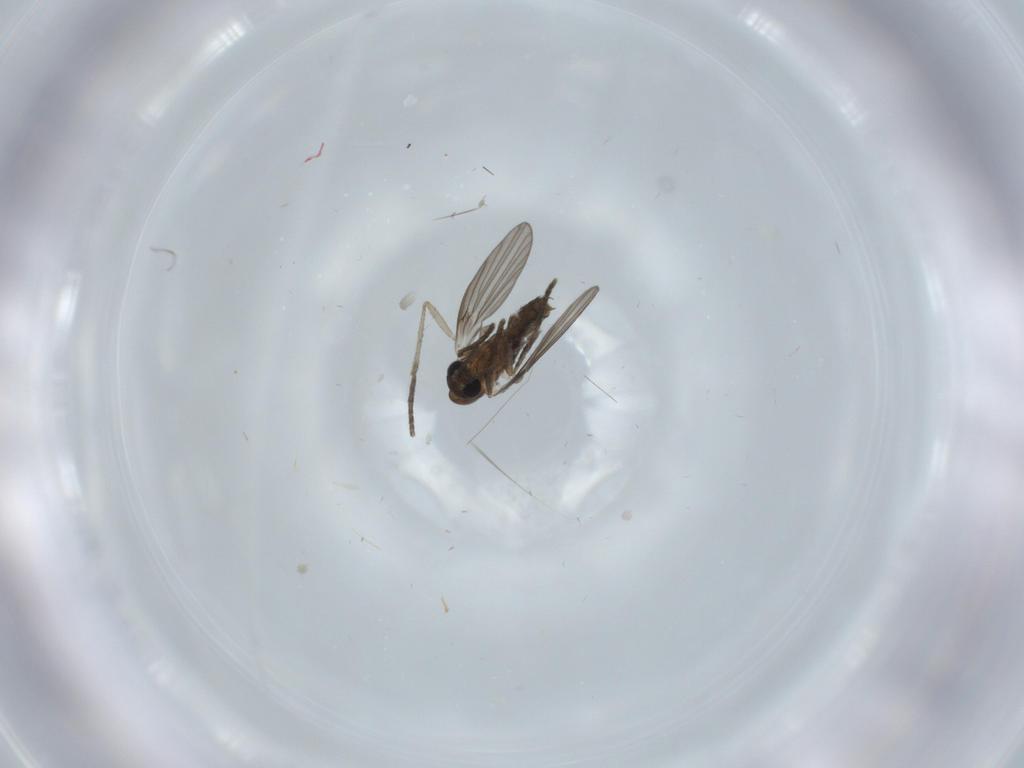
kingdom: Animalia
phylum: Arthropoda
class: Insecta
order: Diptera
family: Psychodidae
